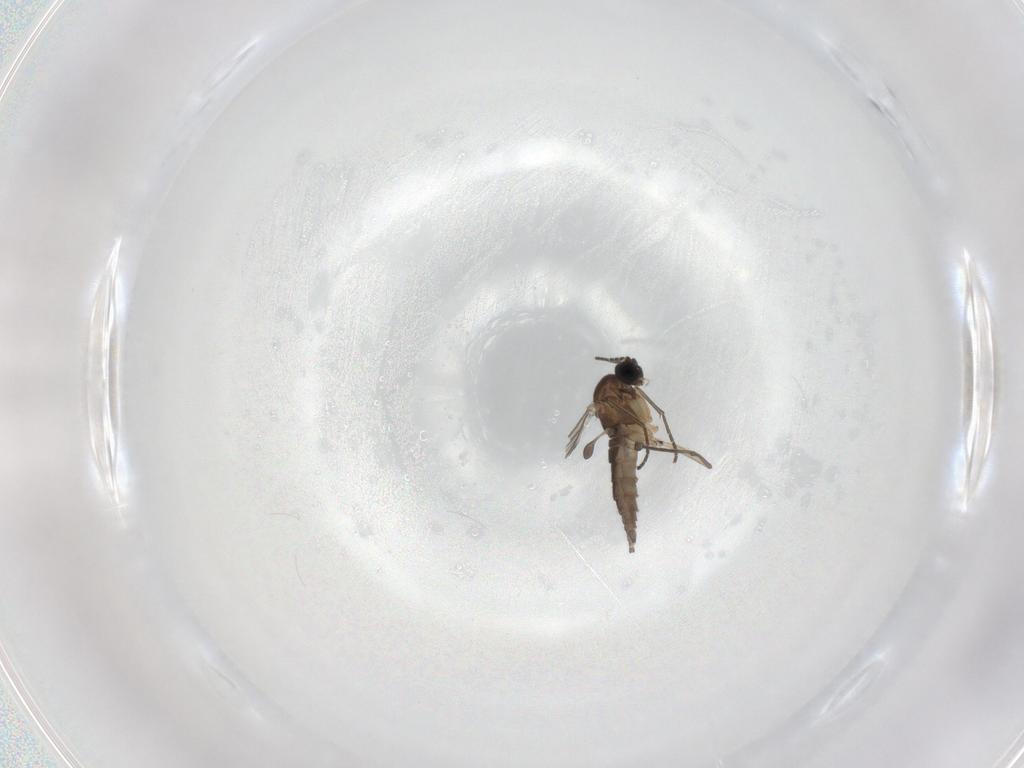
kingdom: Animalia
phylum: Arthropoda
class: Insecta
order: Diptera
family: Sciaridae
